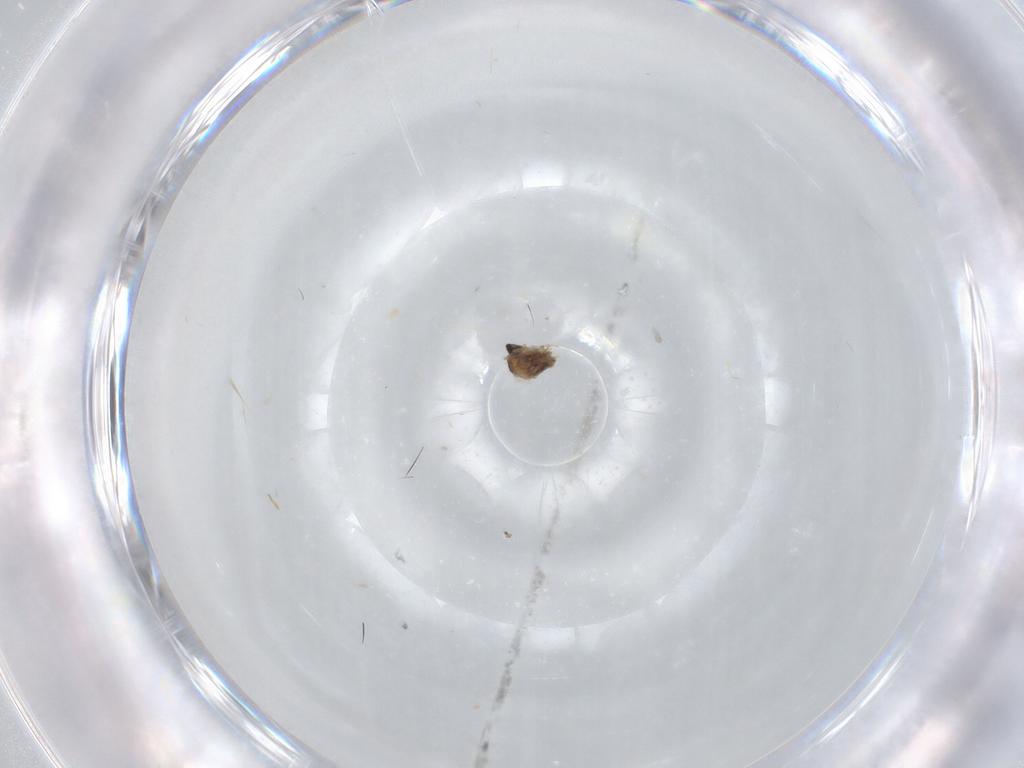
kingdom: Animalia
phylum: Arthropoda
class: Insecta
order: Diptera
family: Cecidomyiidae
